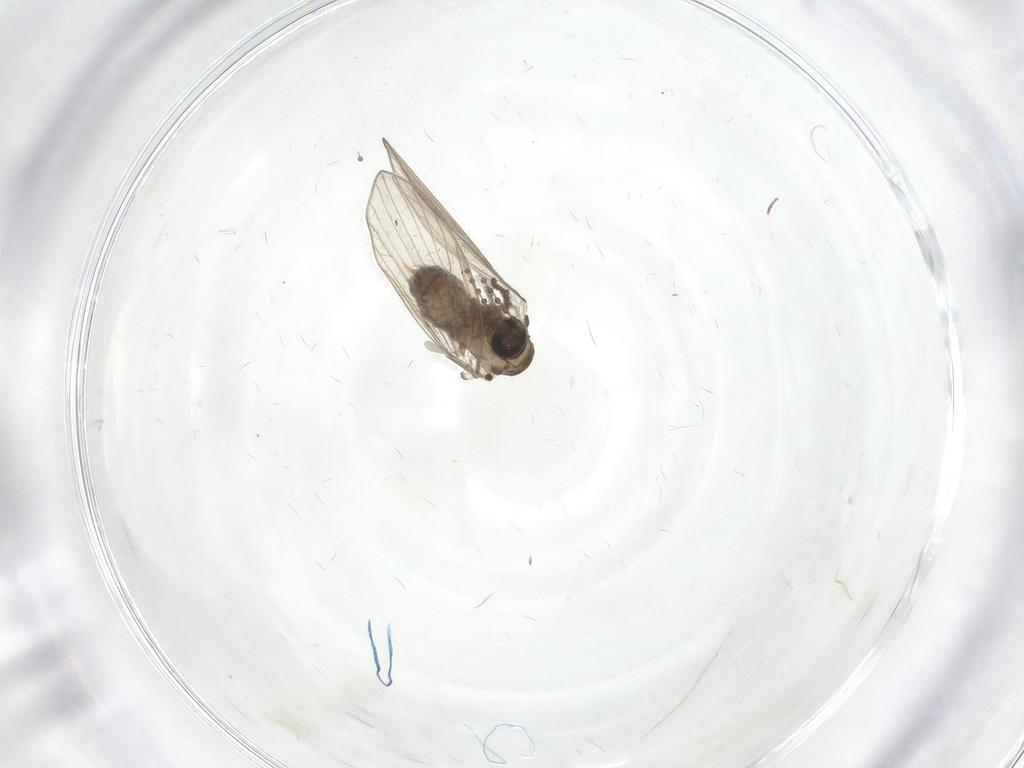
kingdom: Animalia
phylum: Arthropoda
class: Insecta
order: Diptera
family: Psychodidae
